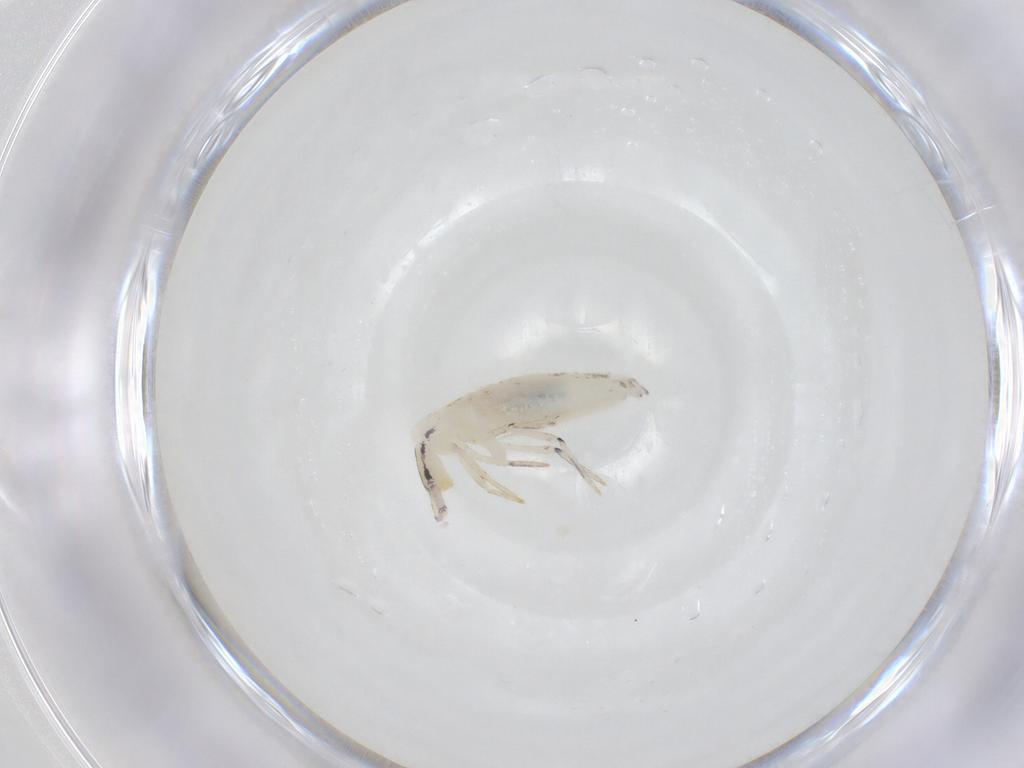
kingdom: Animalia
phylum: Arthropoda
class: Collembola
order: Entomobryomorpha
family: Entomobryidae
